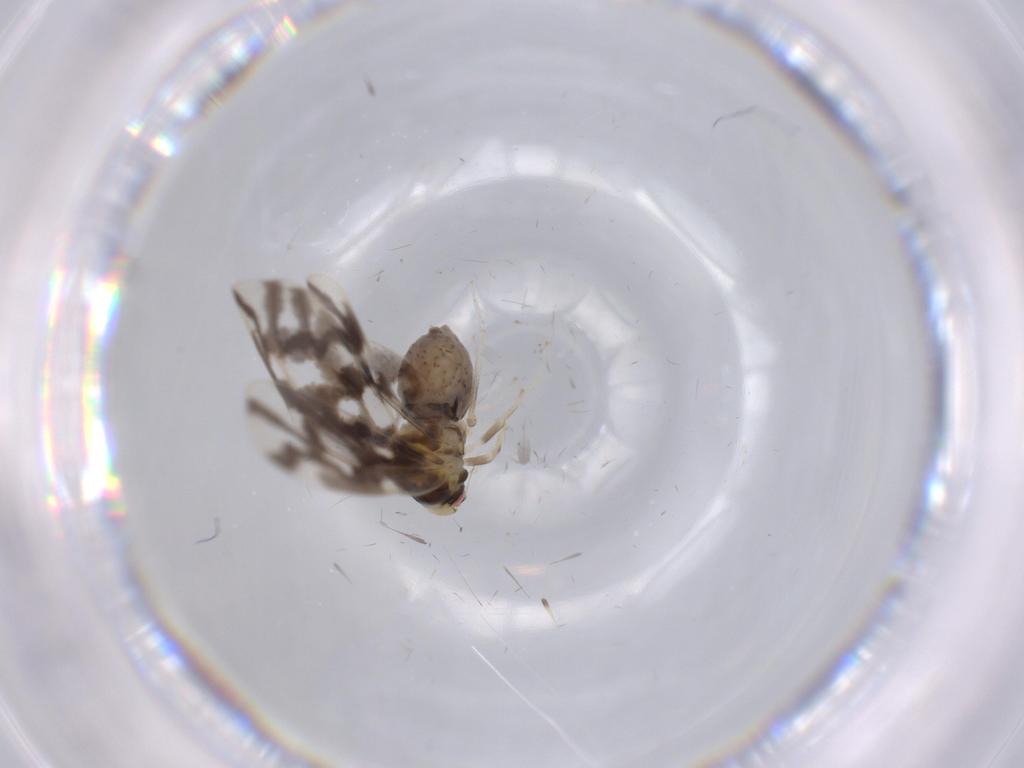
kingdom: Animalia
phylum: Arthropoda
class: Insecta
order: Hemiptera
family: Aleyrodidae
